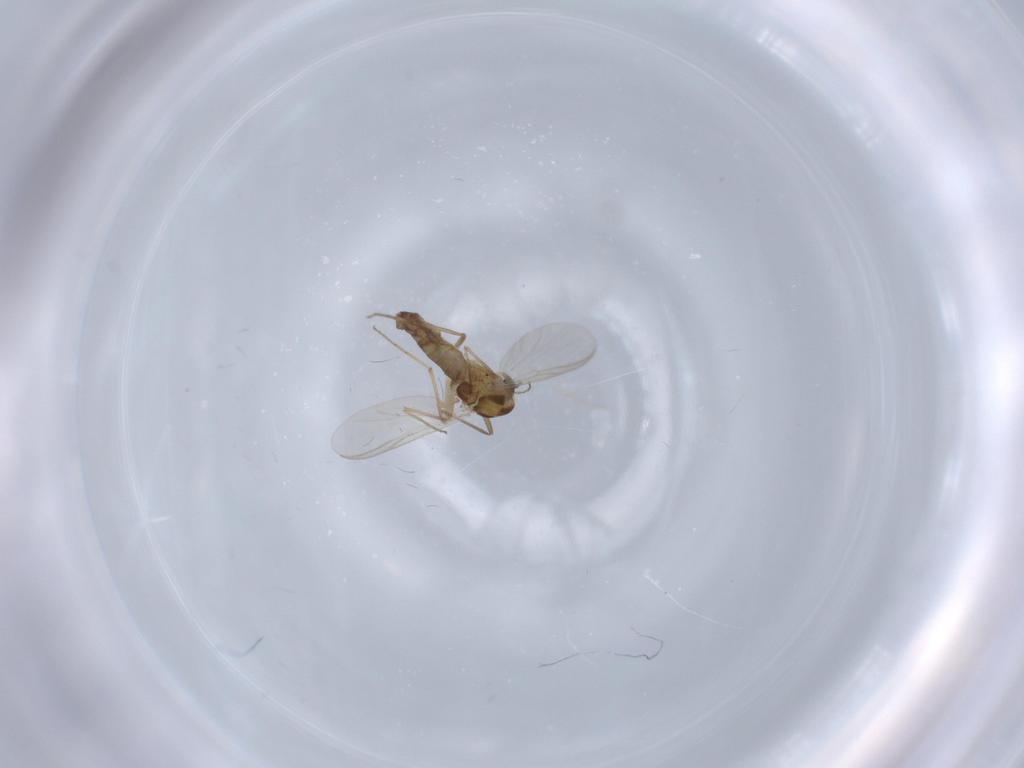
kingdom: Animalia
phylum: Arthropoda
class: Insecta
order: Diptera
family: Chironomidae
